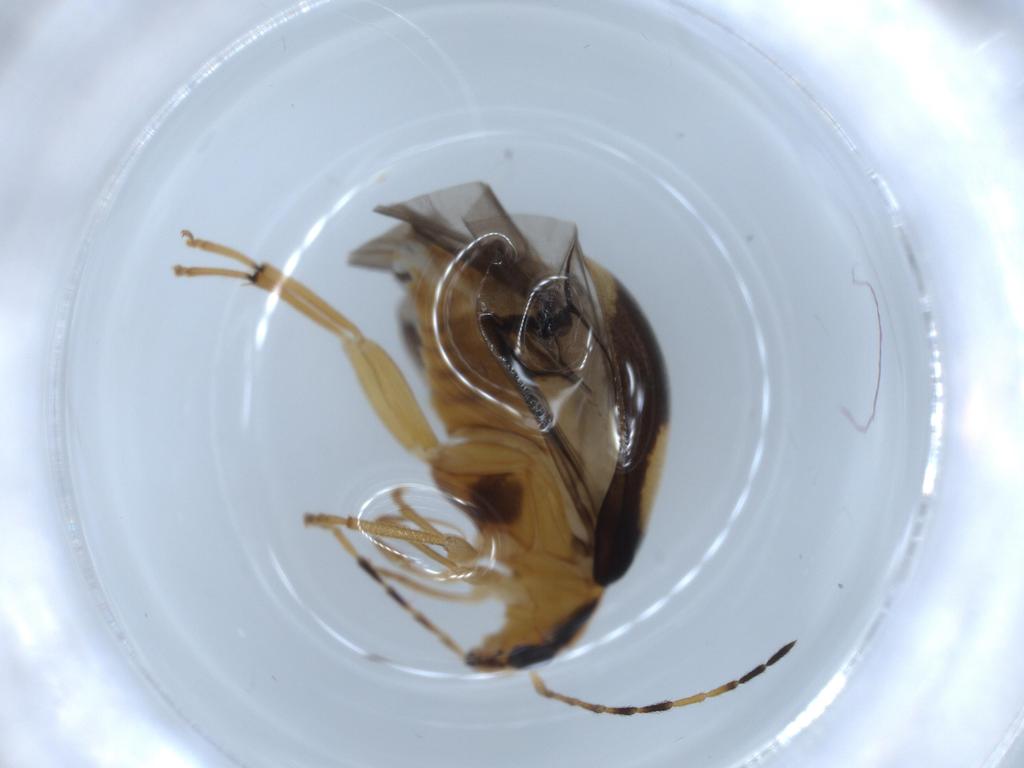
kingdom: Animalia
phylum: Arthropoda
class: Insecta
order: Coleoptera
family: Chrysomelidae
